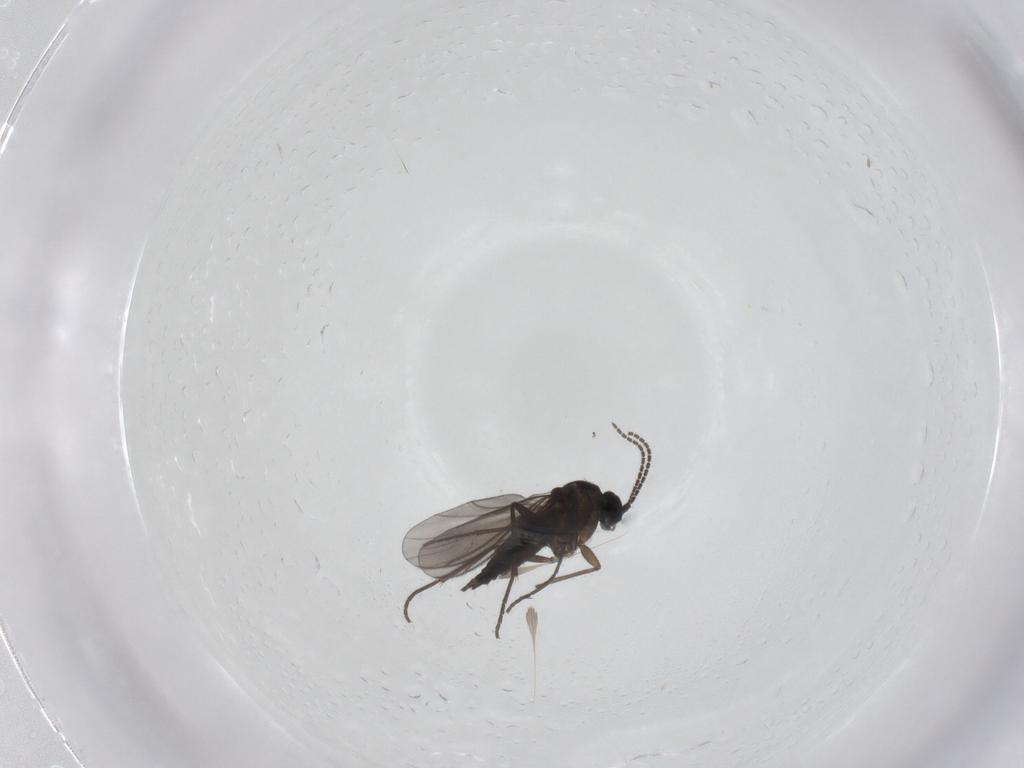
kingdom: Animalia
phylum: Arthropoda
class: Insecta
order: Diptera
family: Sciaridae
